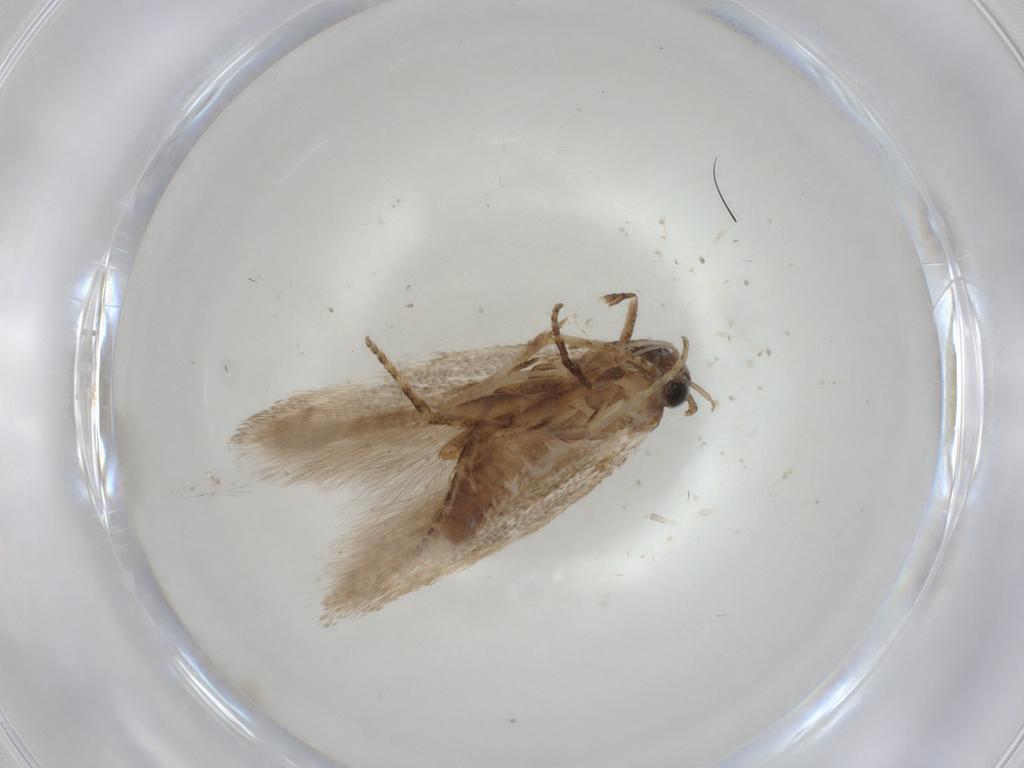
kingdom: Animalia
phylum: Arthropoda
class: Insecta
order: Lepidoptera
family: Gelechiidae
